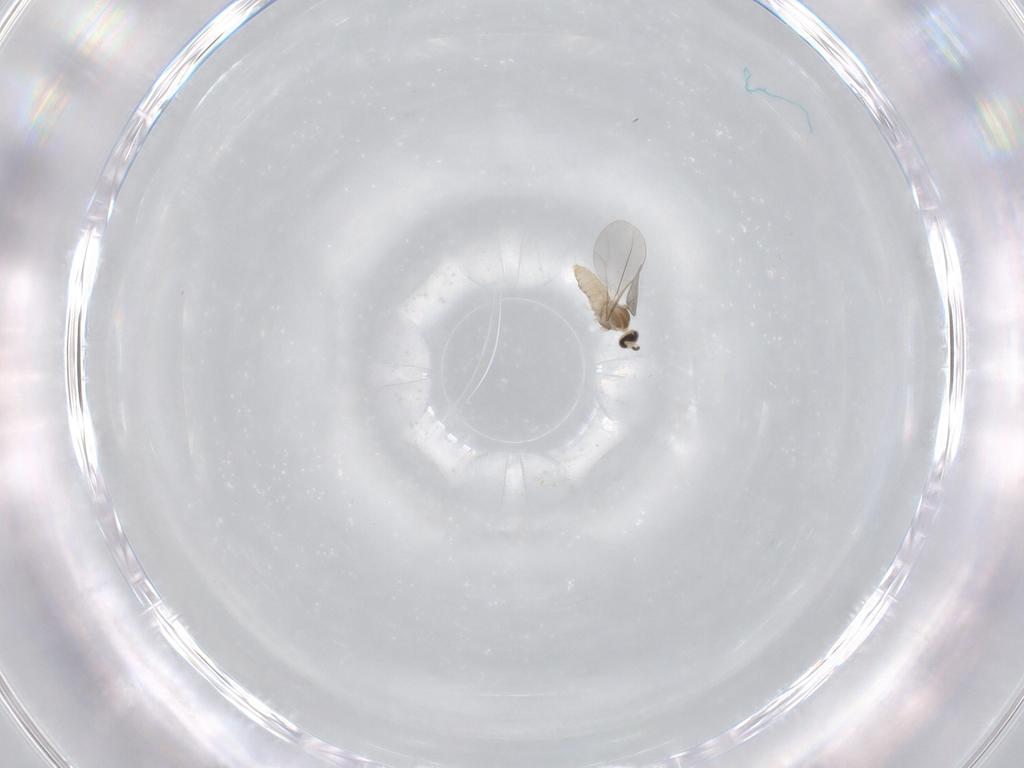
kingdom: Animalia
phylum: Arthropoda
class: Insecta
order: Diptera
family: Cecidomyiidae
